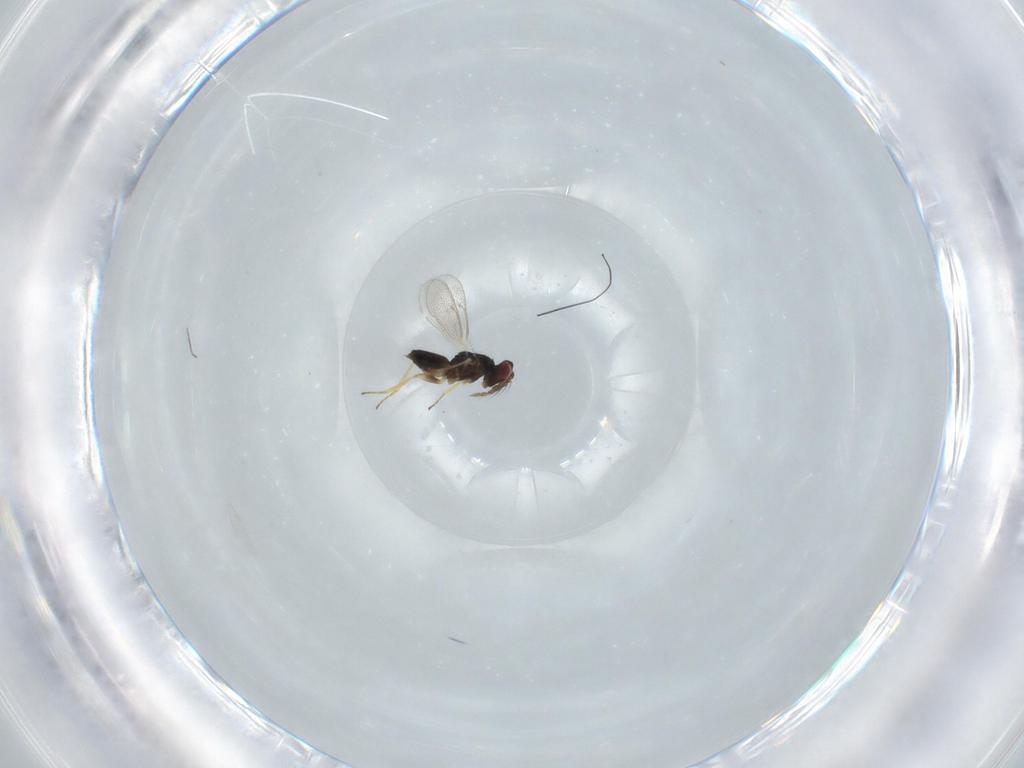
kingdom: Animalia
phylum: Arthropoda
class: Insecta
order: Hymenoptera
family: Eulophidae
